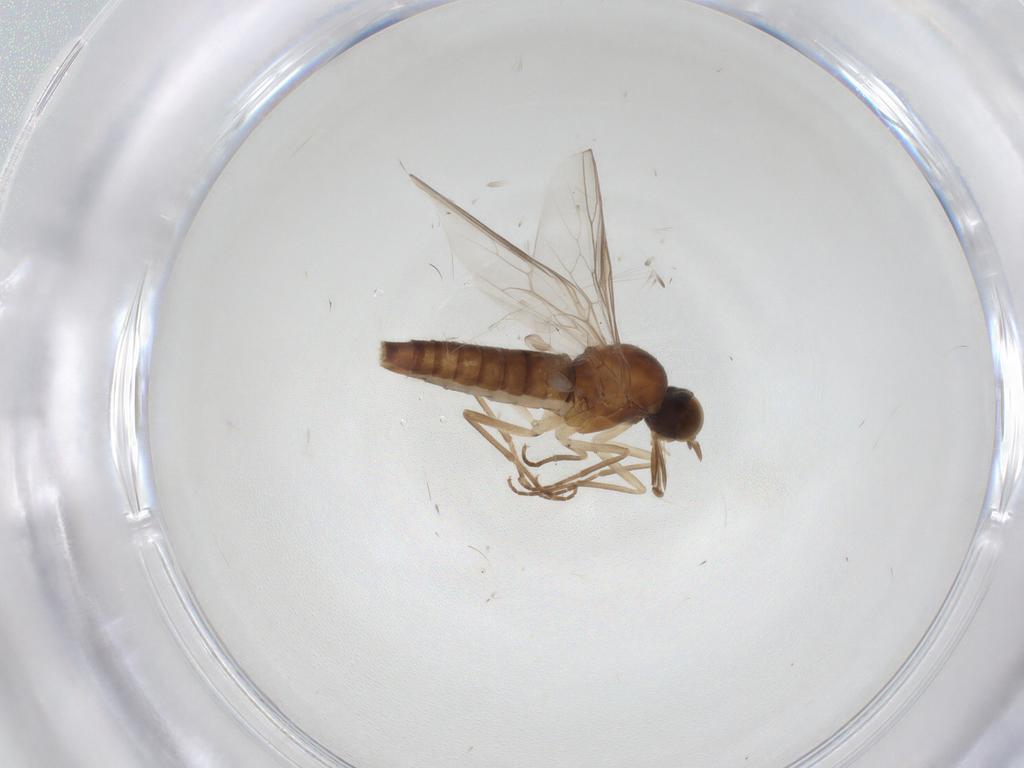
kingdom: Animalia
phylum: Arthropoda
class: Insecta
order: Diptera
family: Scenopinidae
